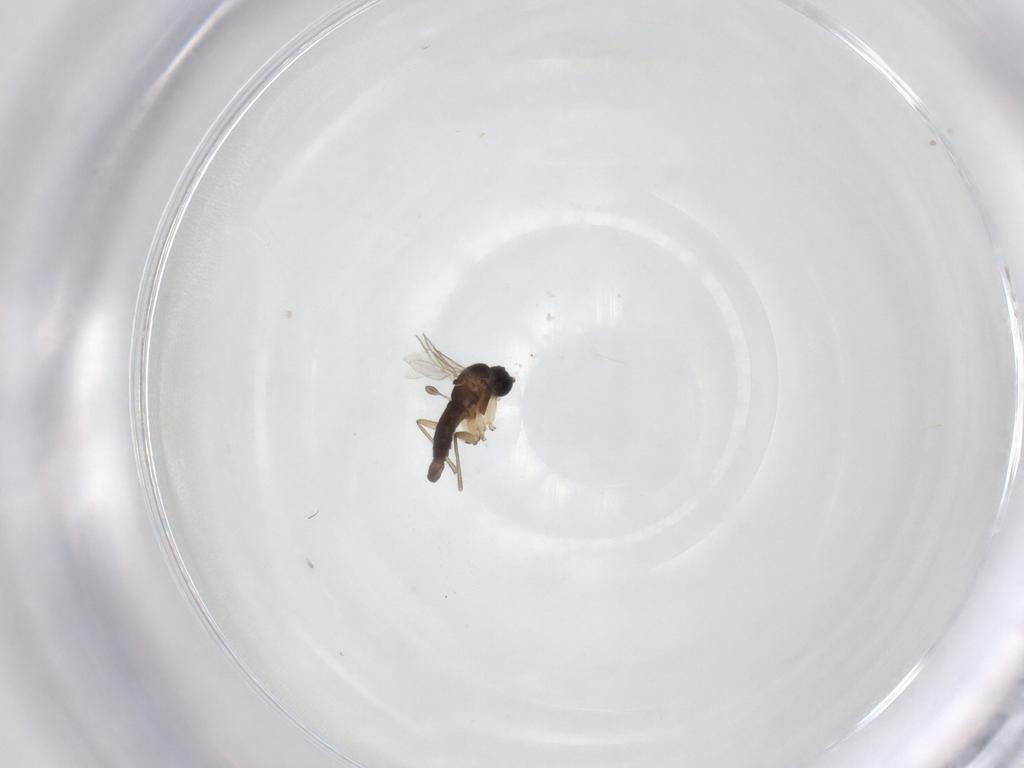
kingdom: Animalia
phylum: Arthropoda
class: Insecta
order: Diptera
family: Sciaridae
